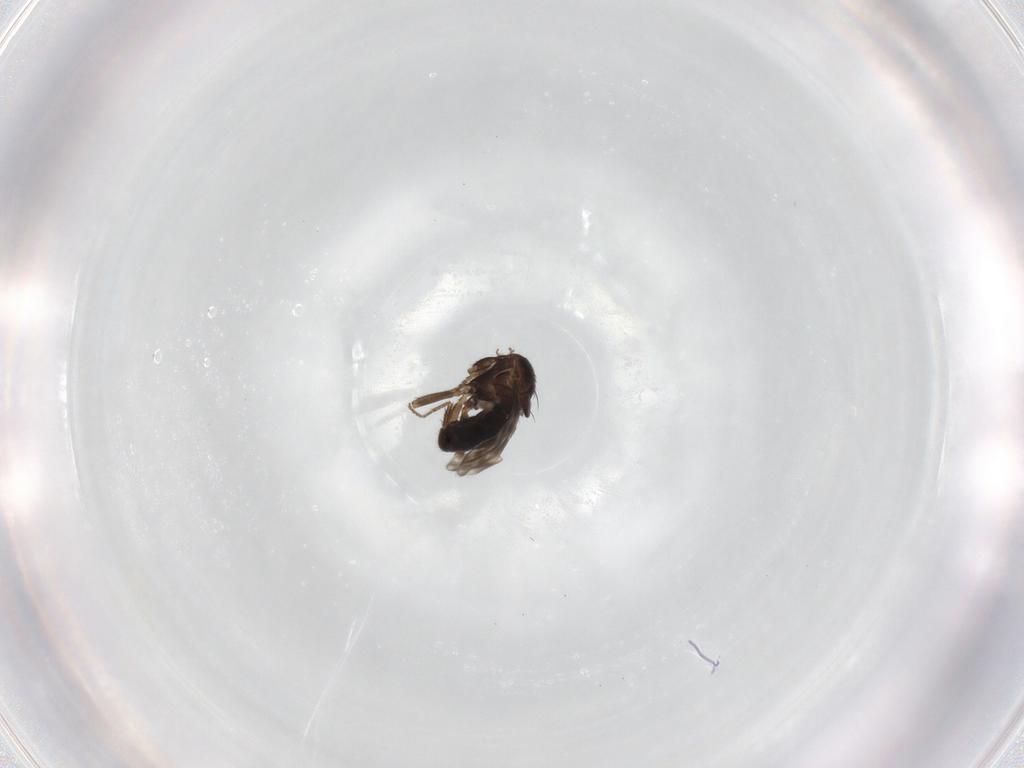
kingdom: Animalia
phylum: Arthropoda
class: Insecta
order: Diptera
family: Sphaeroceridae
